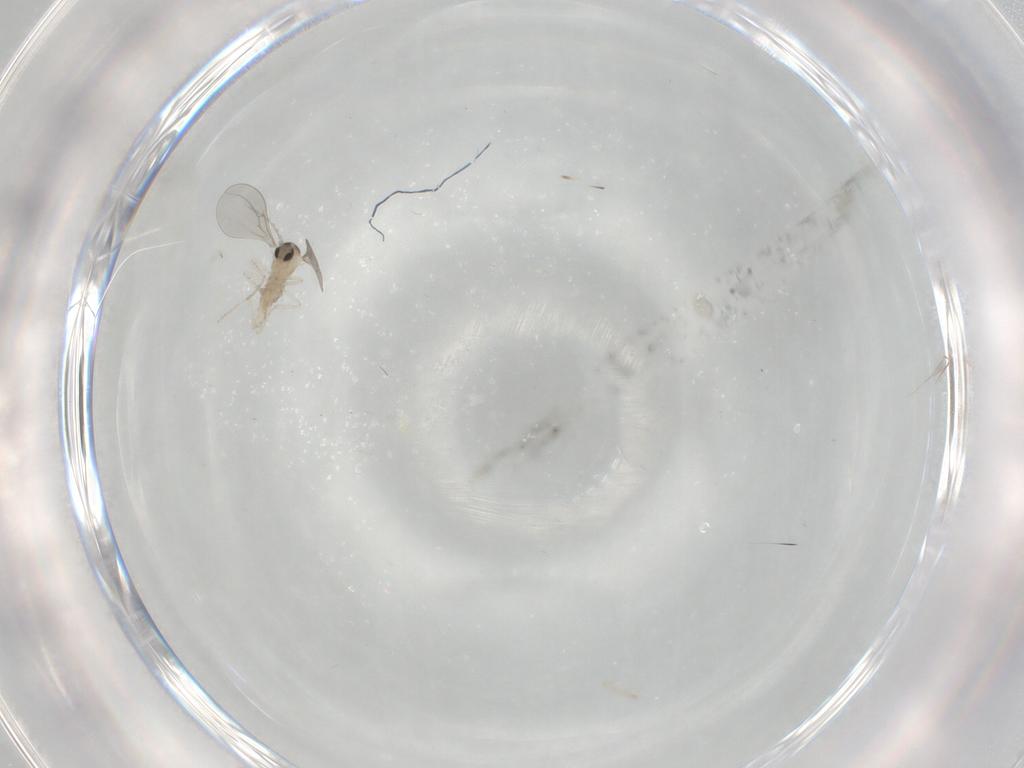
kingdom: Animalia
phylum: Arthropoda
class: Insecta
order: Diptera
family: Cecidomyiidae
